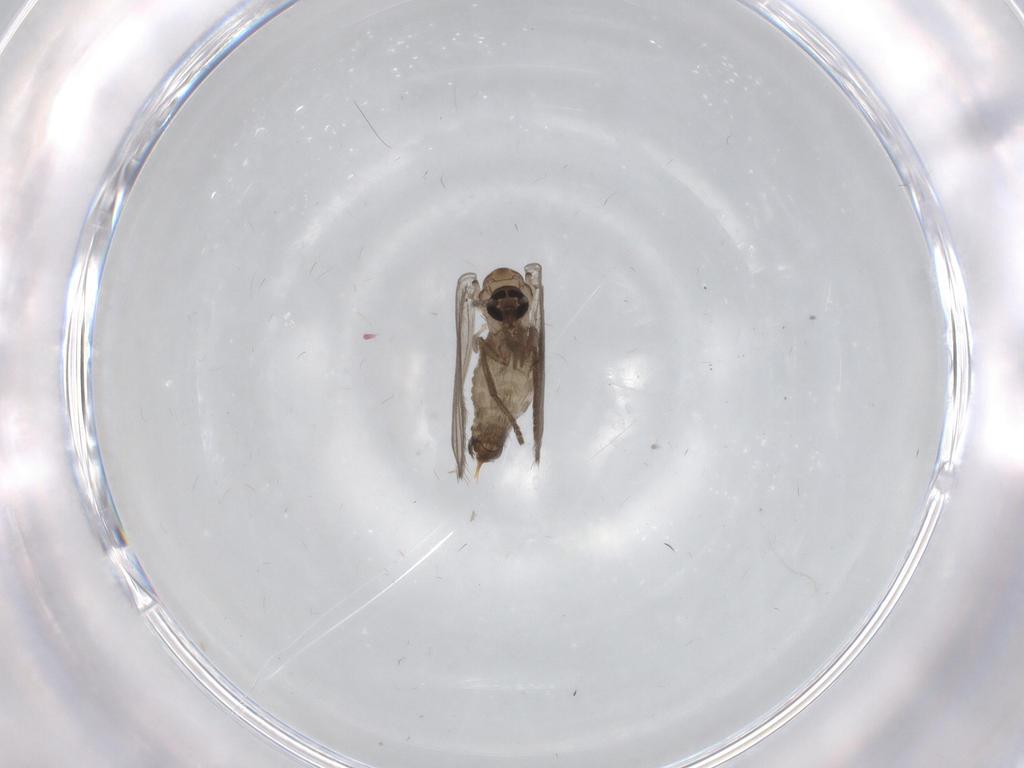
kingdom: Animalia
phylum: Arthropoda
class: Insecta
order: Diptera
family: Psychodidae
